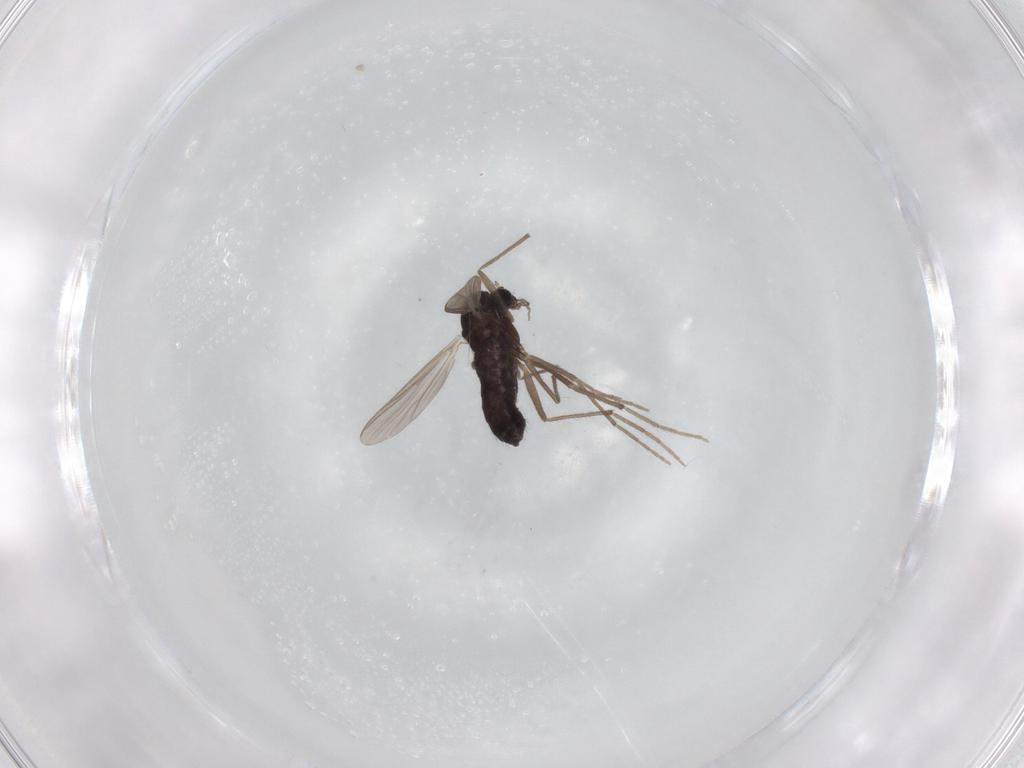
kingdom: Animalia
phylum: Arthropoda
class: Insecta
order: Diptera
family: Chironomidae
